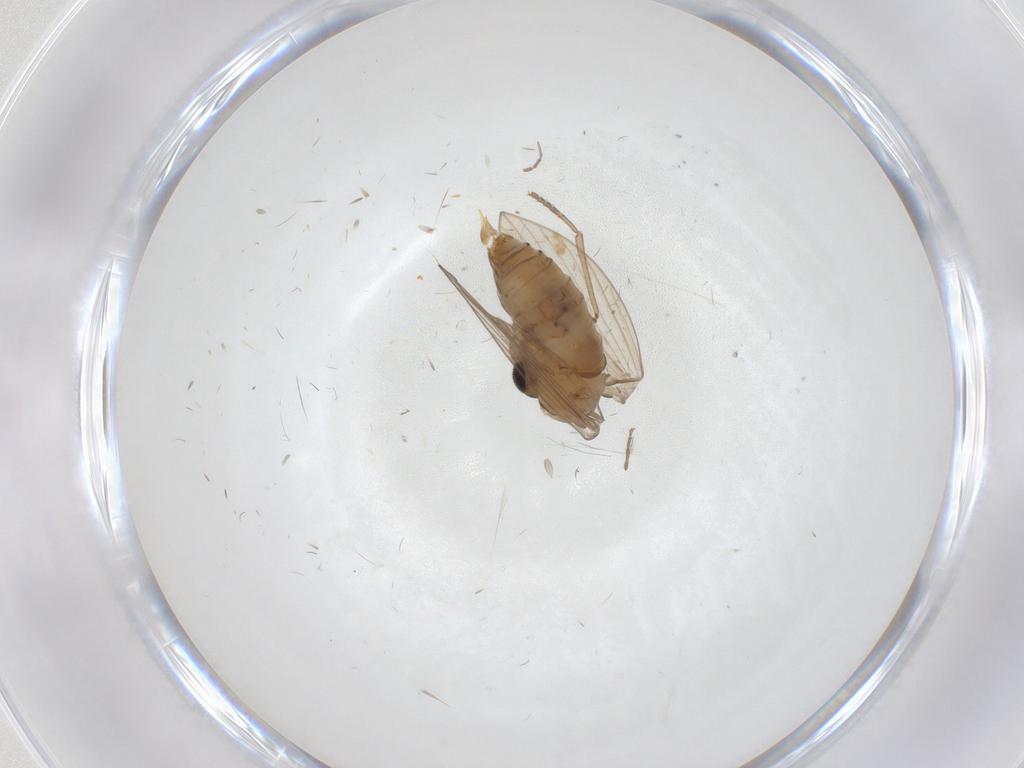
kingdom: Animalia
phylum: Arthropoda
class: Insecta
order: Diptera
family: Psychodidae
